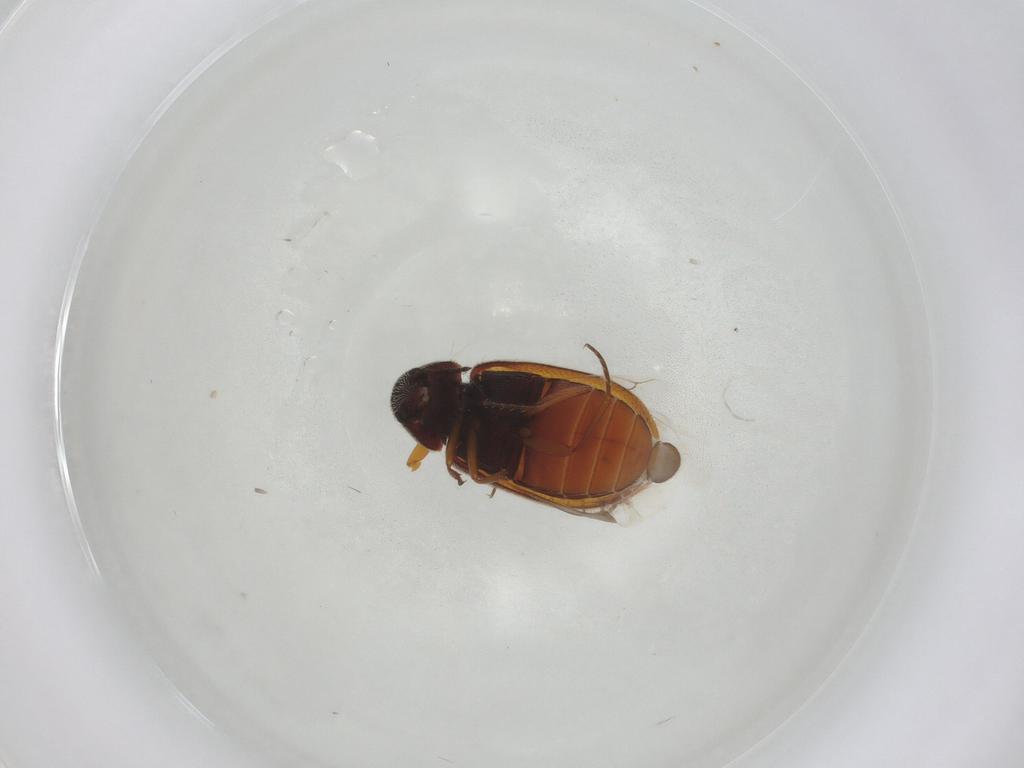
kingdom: Animalia
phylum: Arthropoda
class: Insecta
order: Coleoptera
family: Rhadalidae
